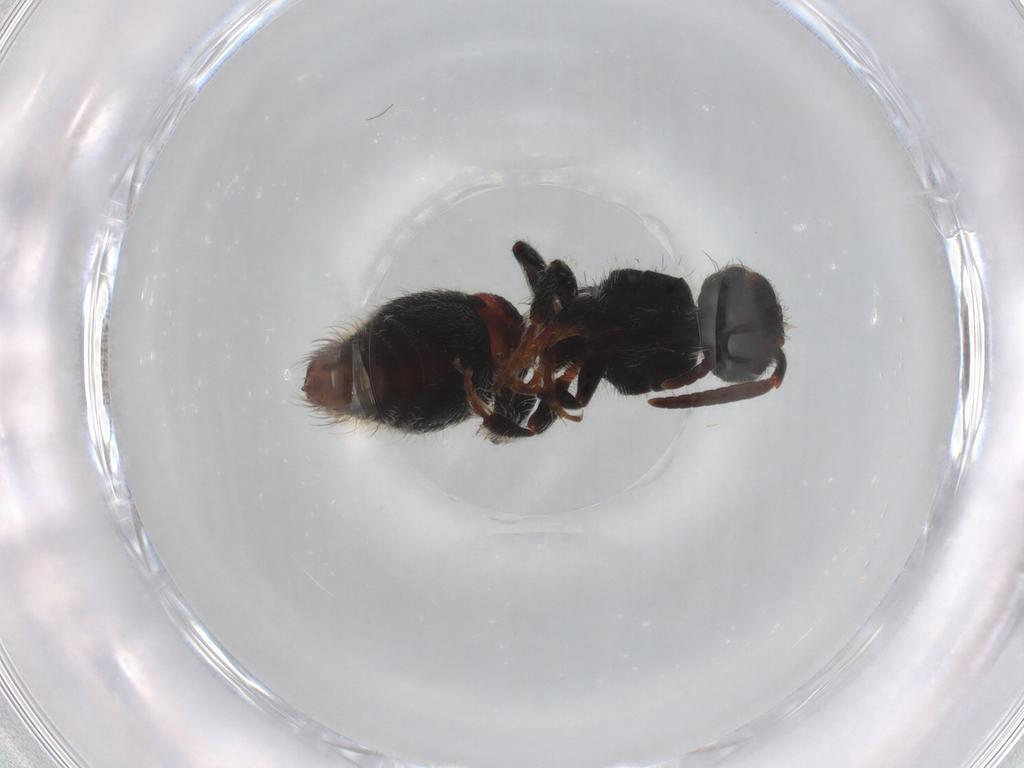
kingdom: Animalia
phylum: Arthropoda
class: Insecta
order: Hymenoptera
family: Mutillidae
